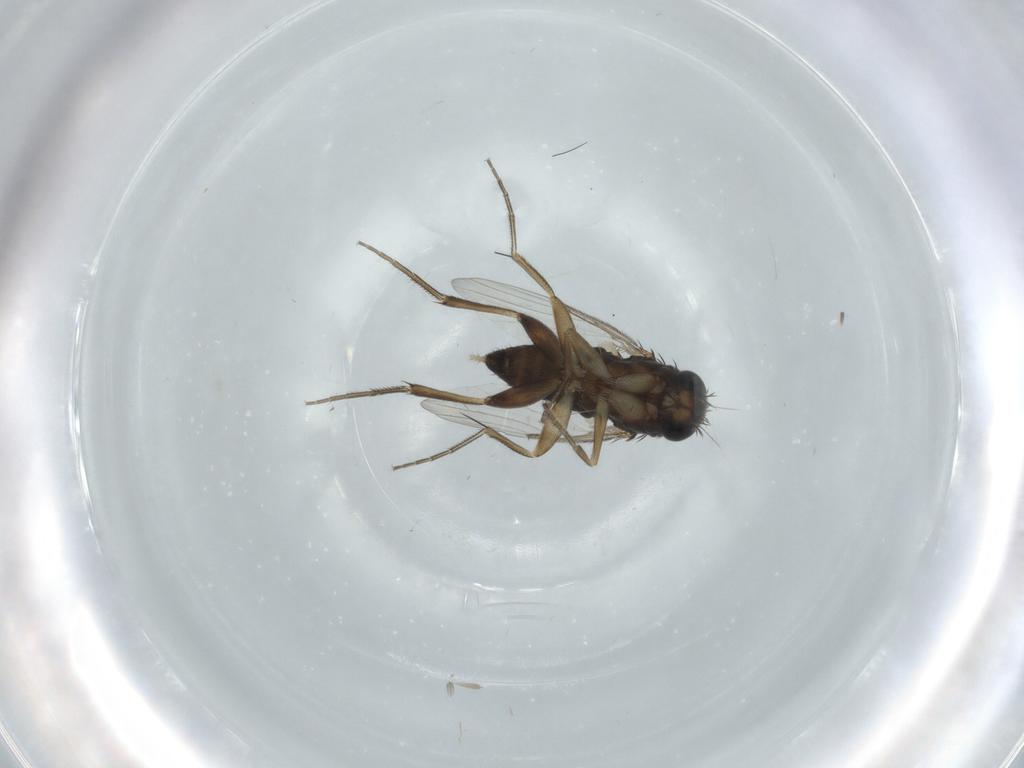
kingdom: Animalia
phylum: Arthropoda
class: Insecta
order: Diptera
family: Phoridae
